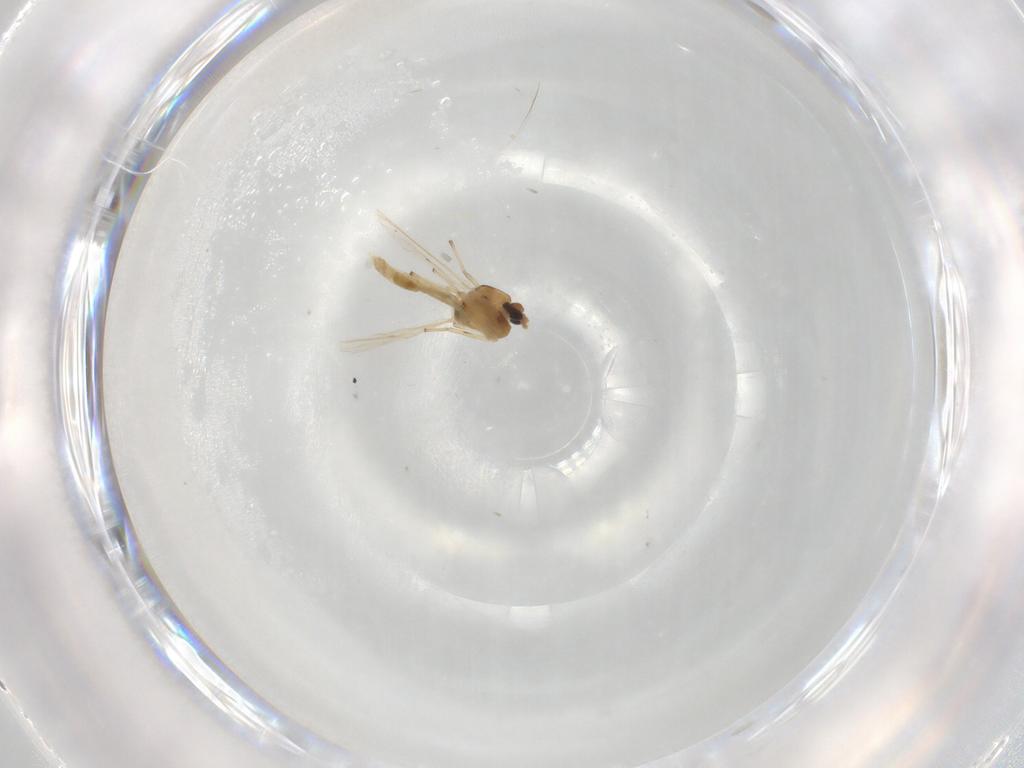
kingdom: Animalia
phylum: Arthropoda
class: Insecta
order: Diptera
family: Chironomidae
